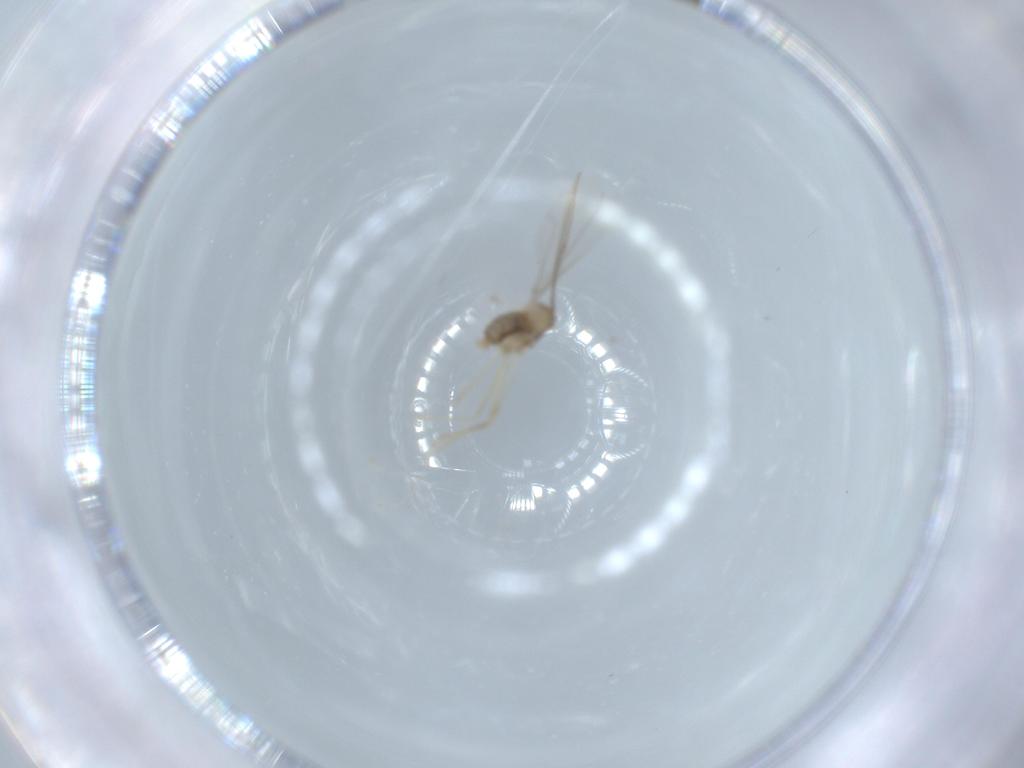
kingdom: Animalia
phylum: Arthropoda
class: Insecta
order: Diptera
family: Cecidomyiidae
